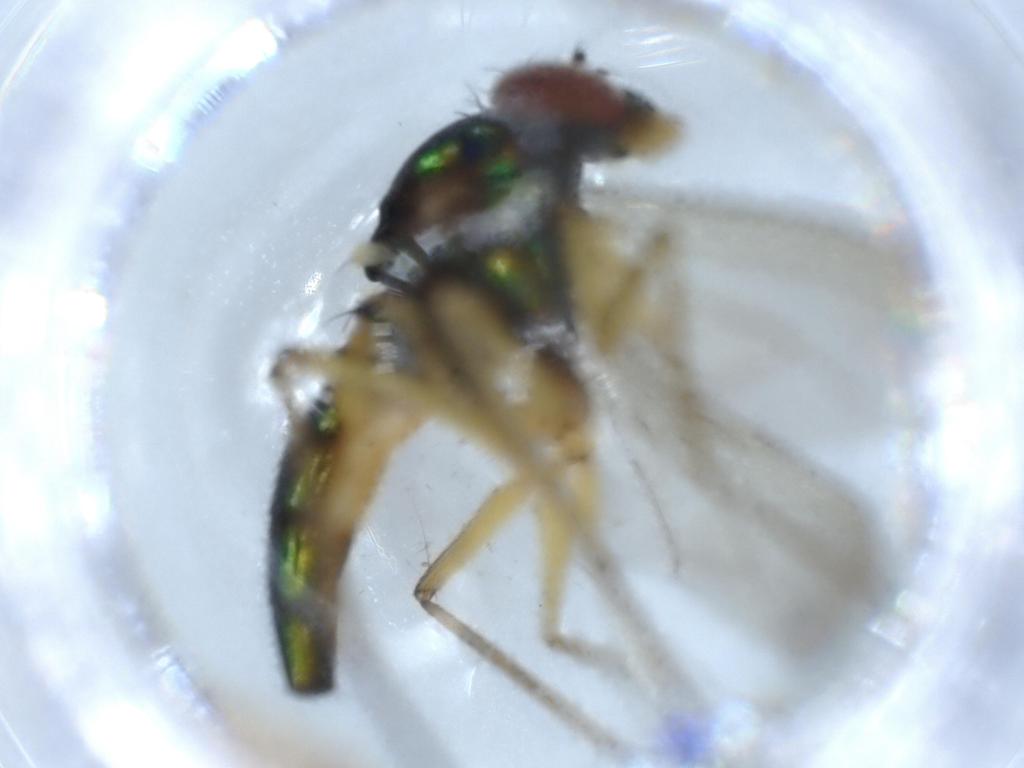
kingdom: Animalia
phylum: Arthropoda
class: Insecta
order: Diptera
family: Dolichopodidae
